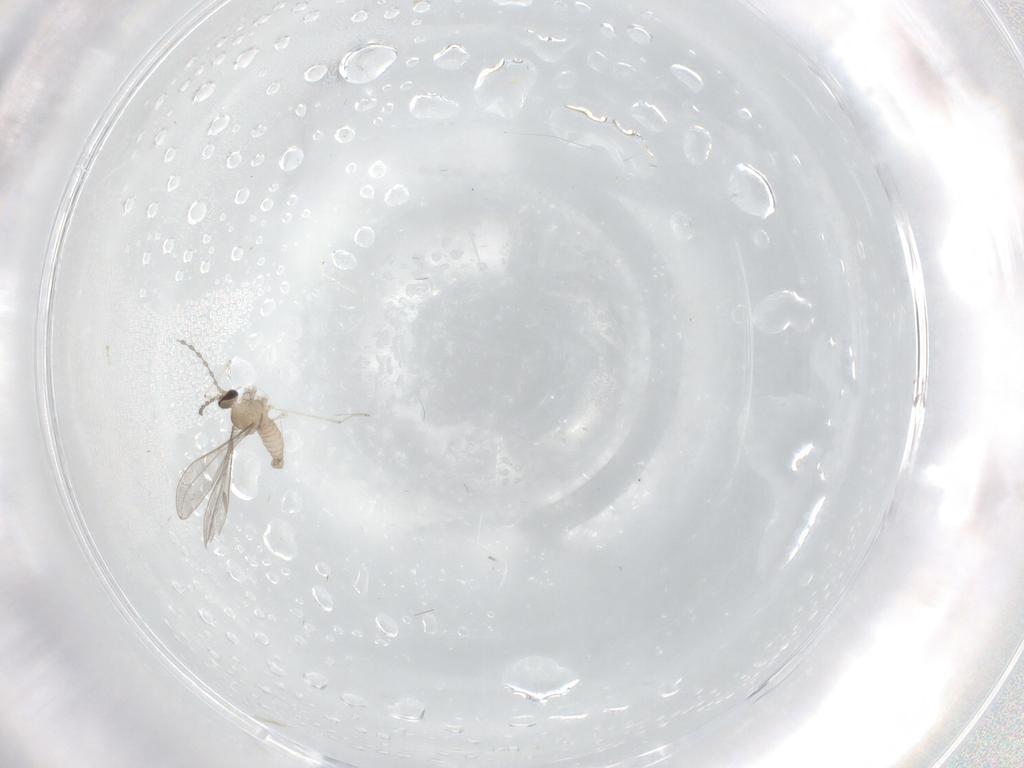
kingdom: Animalia
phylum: Arthropoda
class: Insecta
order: Diptera
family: Cecidomyiidae
